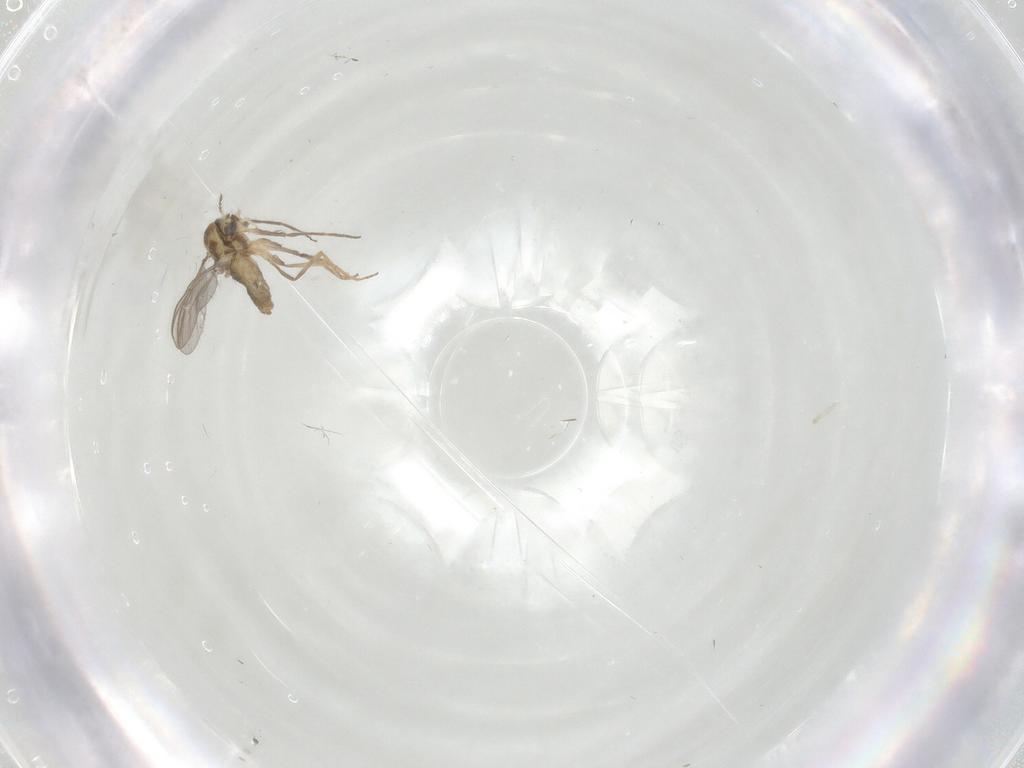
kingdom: Animalia
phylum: Arthropoda
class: Insecta
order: Diptera
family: Chironomidae
